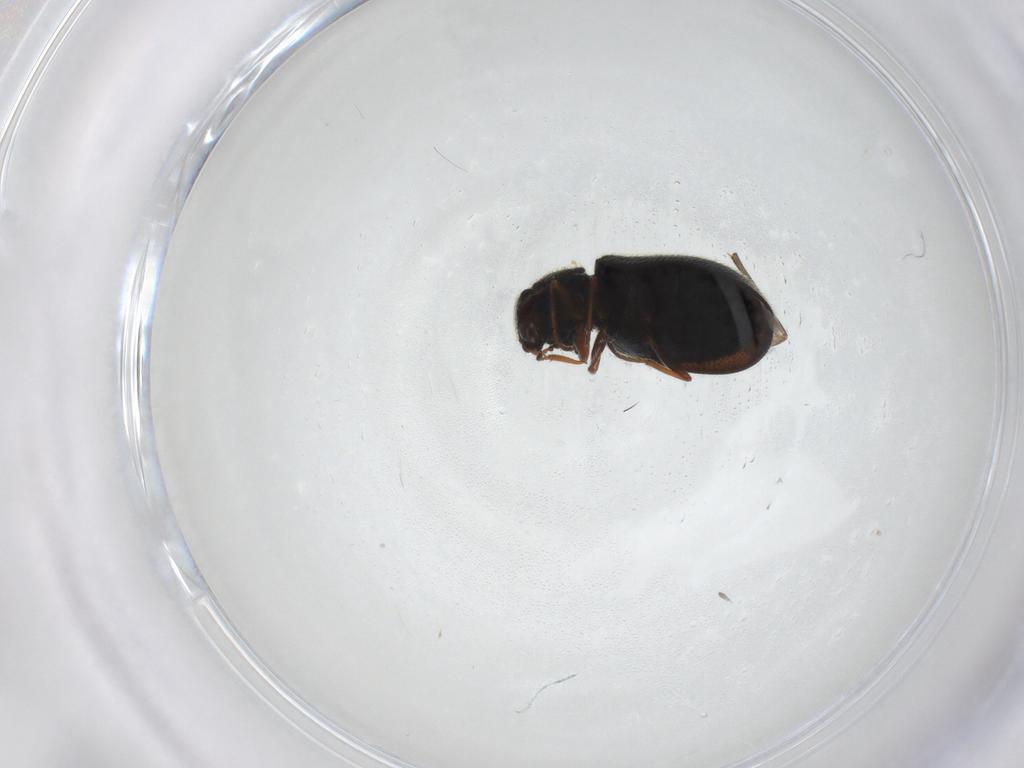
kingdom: Animalia
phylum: Arthropoda
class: Insecta
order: Coleoptera
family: Melyridae
